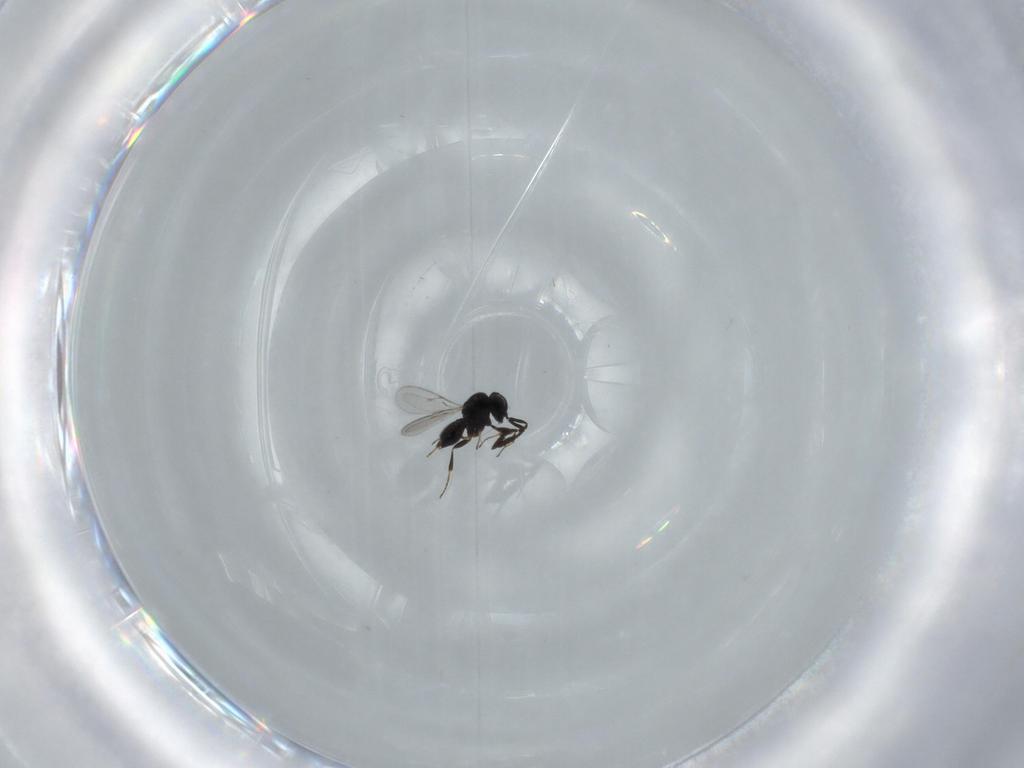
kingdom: Animalia
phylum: Arthropoda
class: Insecta
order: Hymenoptera
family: Scelionidae
